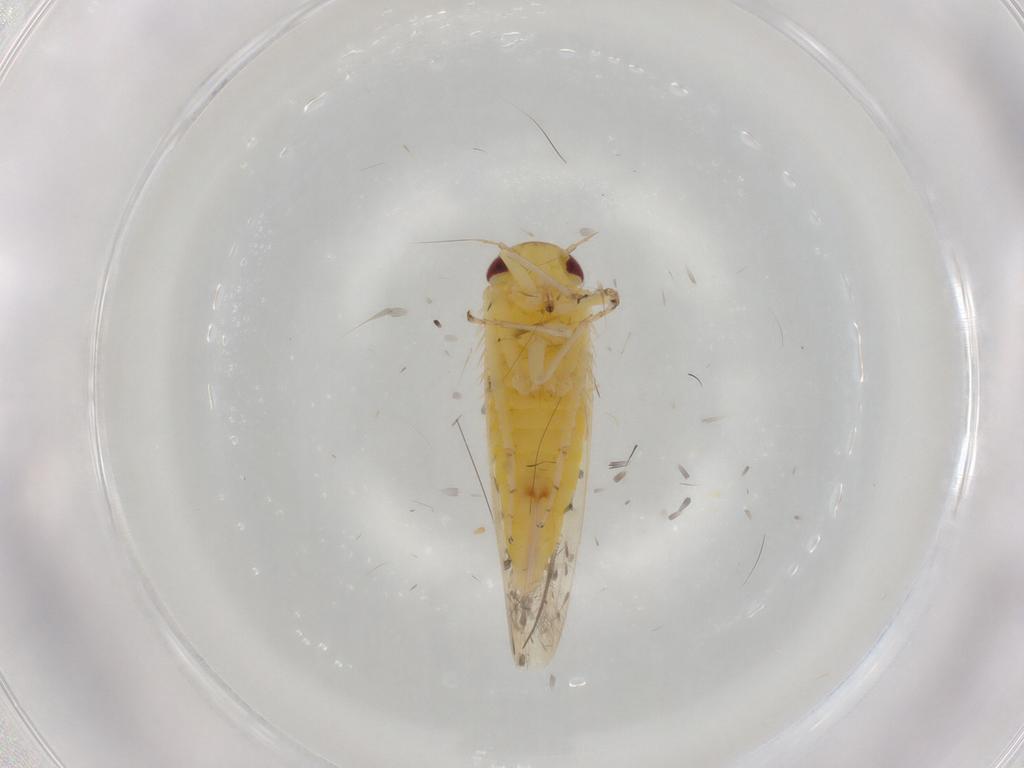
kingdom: Animalia
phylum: Arthropoda
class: Insecta
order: Hemiptera
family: Cicadellidae
